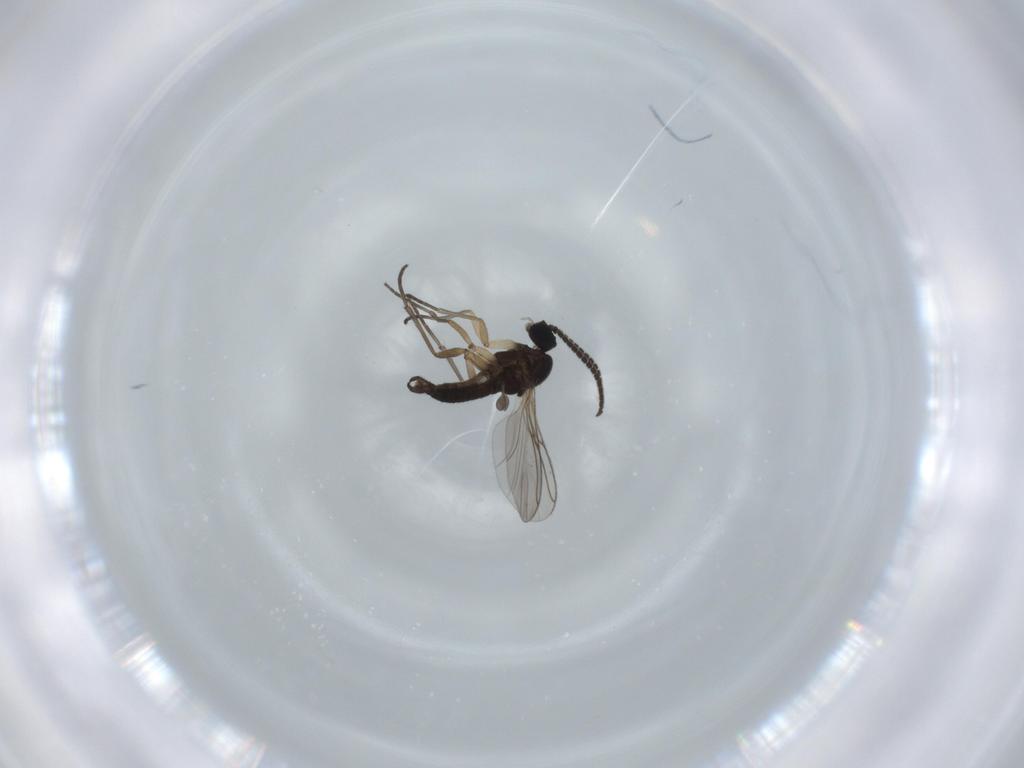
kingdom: Animalia
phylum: Arthropoda
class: Insecta
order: Diptera
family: Sciaridae
